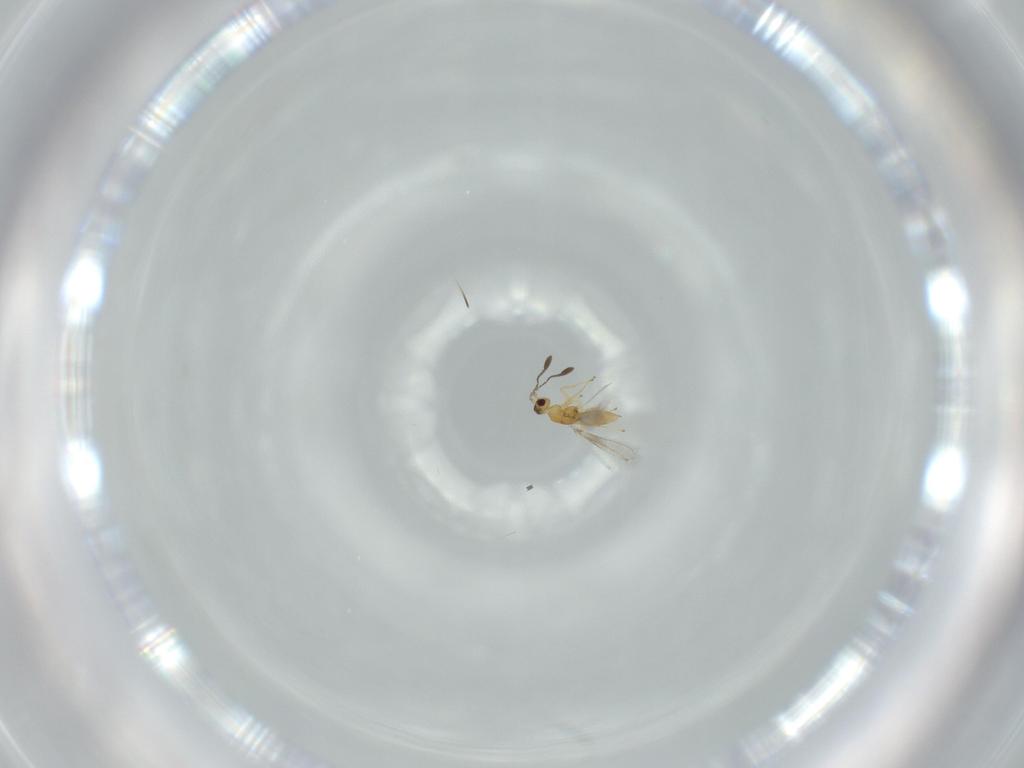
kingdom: Animalia
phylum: Arthropoda
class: Insecta
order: Hymenoptera
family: Mymaridae
